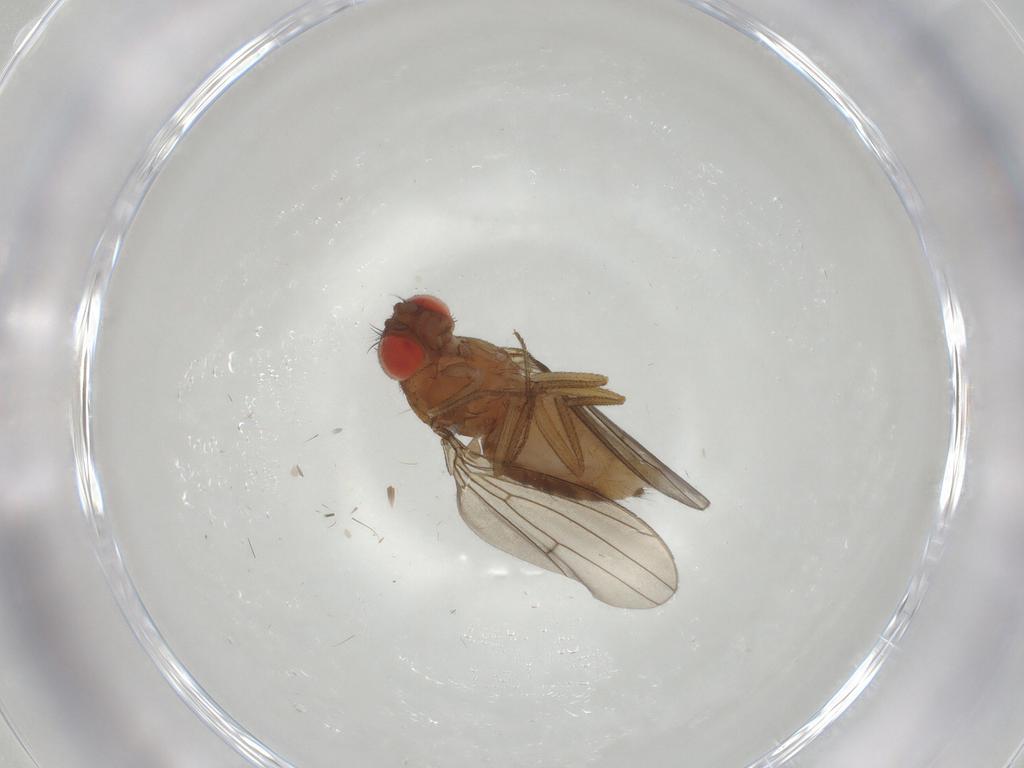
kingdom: Animalia
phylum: Arthropoda
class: Insecta
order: Diptera
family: Drosophilidae
